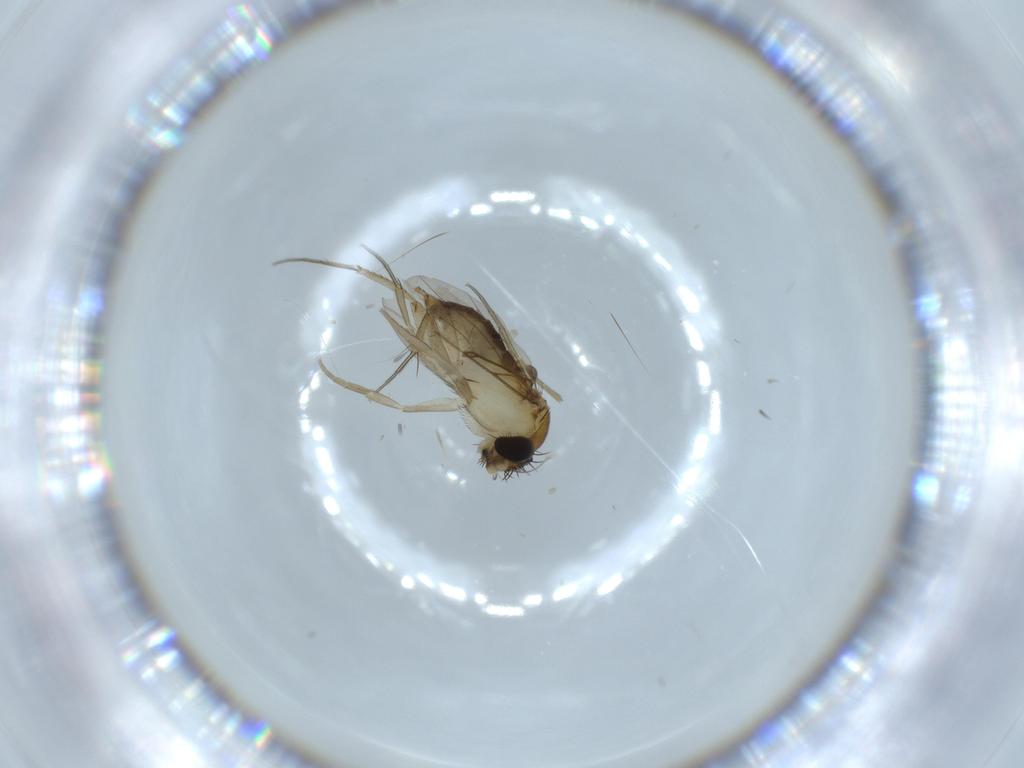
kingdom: Animalia
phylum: Arthropoda
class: Insecta
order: Diptera
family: Phoridae
